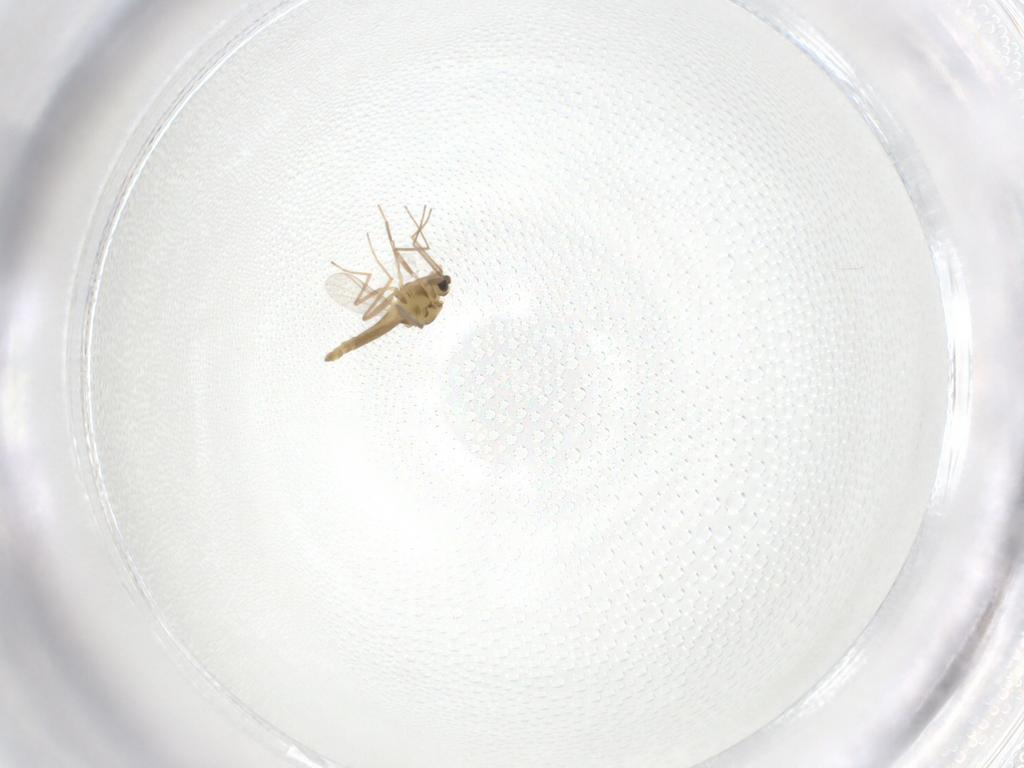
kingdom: Animalia
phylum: Arthropoda
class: Insecta
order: Diptera
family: Chironomidae
